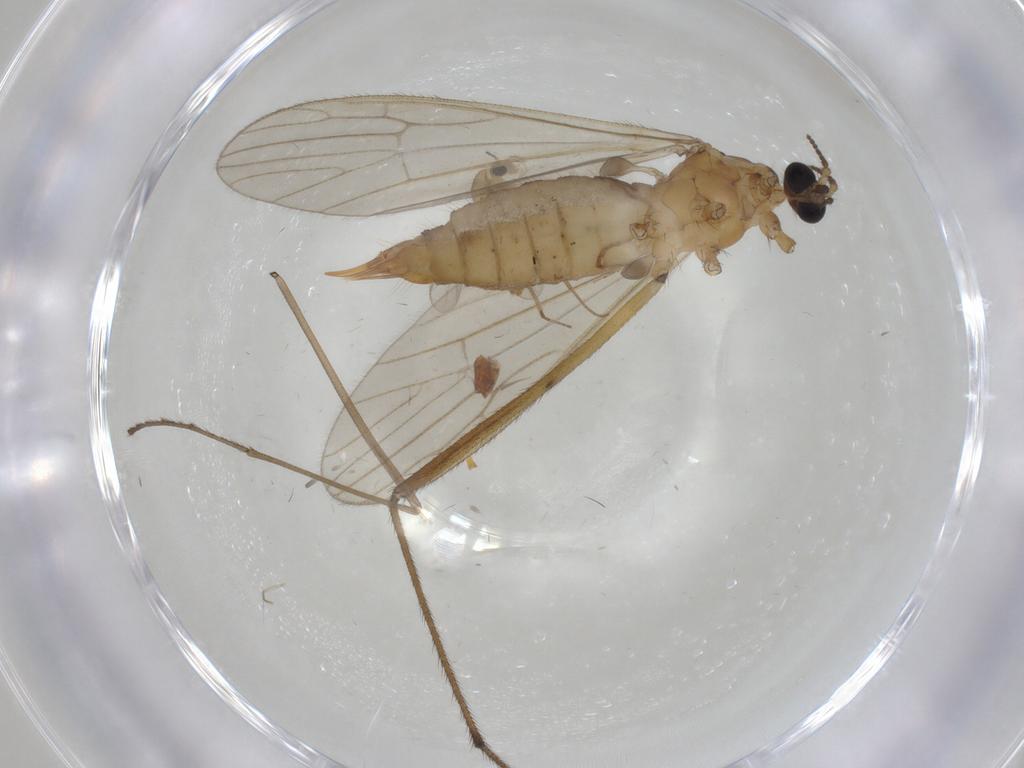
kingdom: Animalia
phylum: Arthropoda
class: Insecta
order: Diptera
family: Limoniidae
